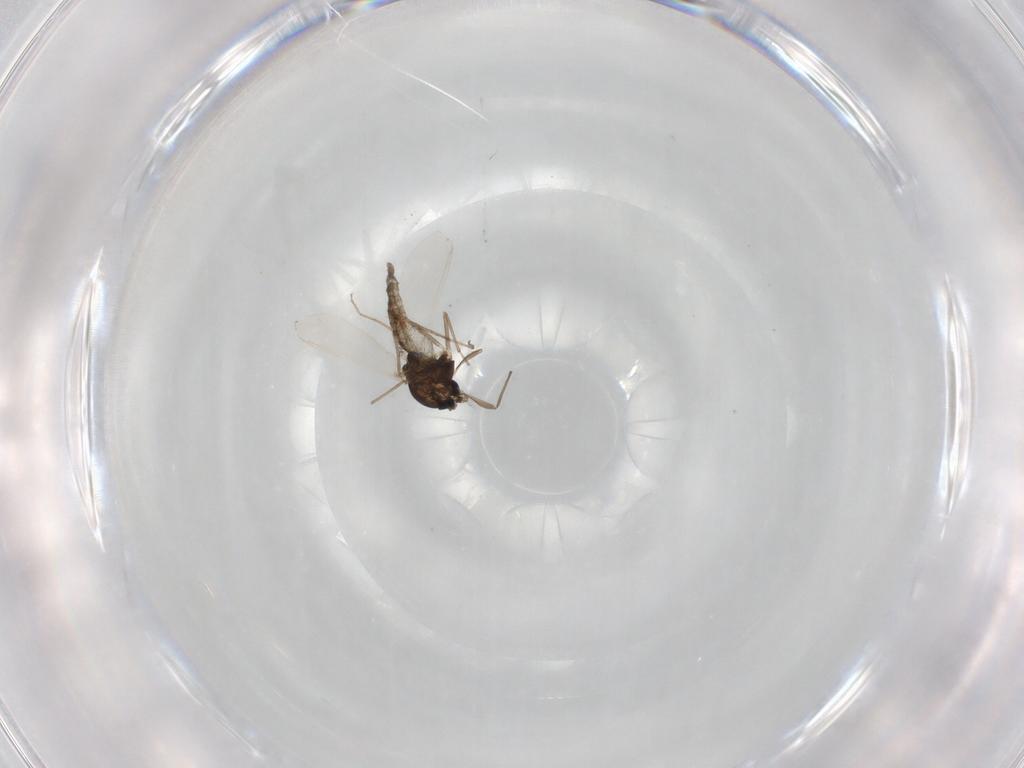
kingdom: Animalia
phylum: Arthropoda
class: Insecta
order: Diptera
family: Chironomidae
